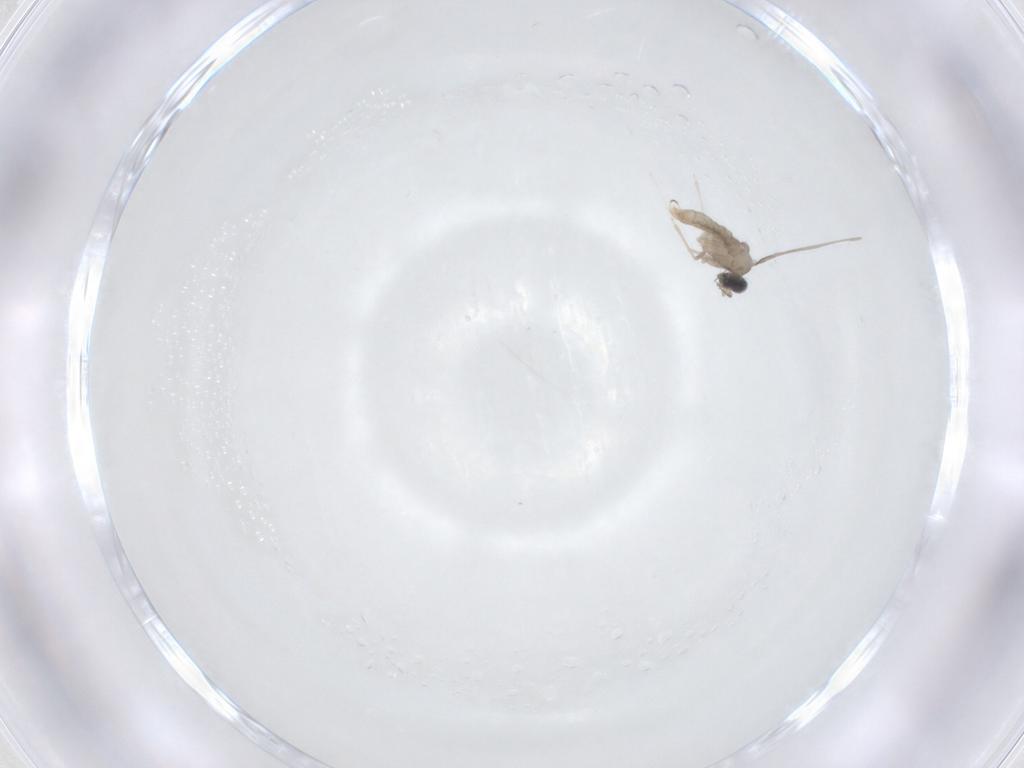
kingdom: Animalia
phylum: Arthropoda
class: Insecta
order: Diptera
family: Cecidomyiidae
